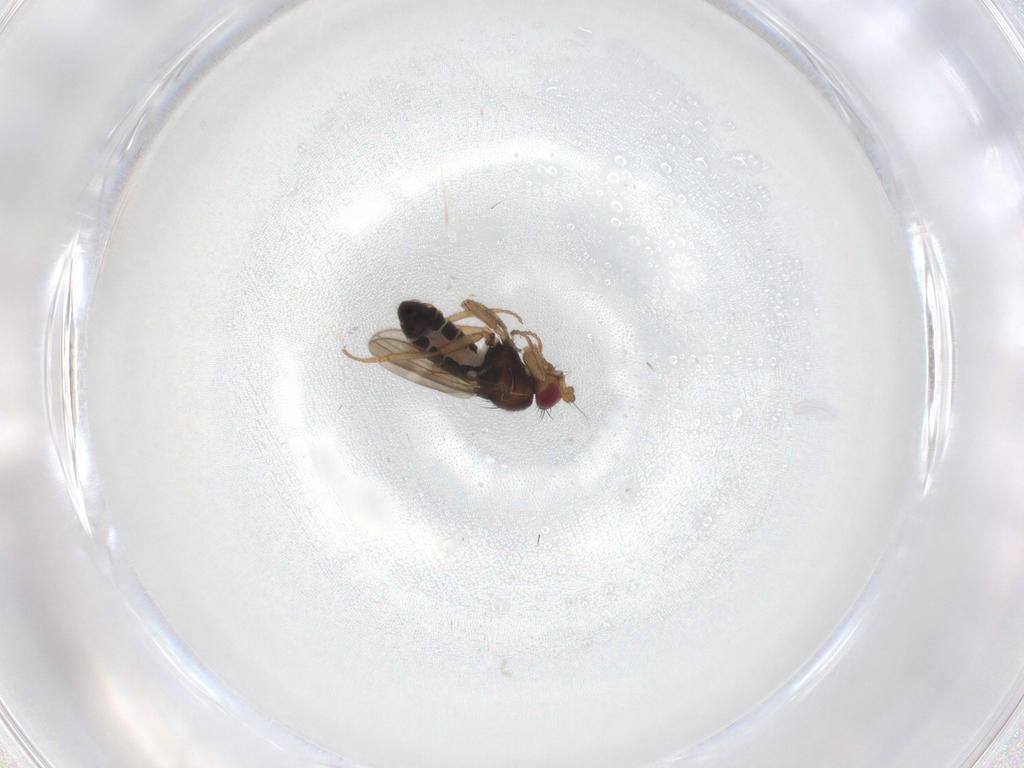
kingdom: Animalia
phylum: Arthropoda
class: Insecta
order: Diptera
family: Sphaeroceridae
